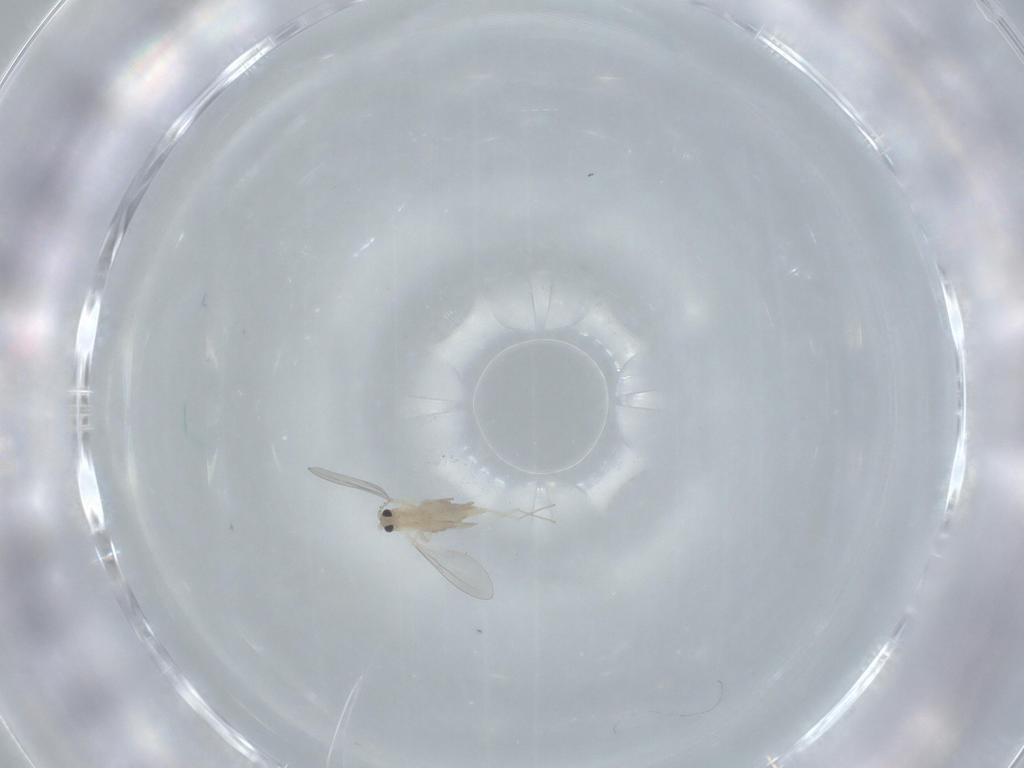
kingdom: Animalia
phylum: Arthropoda
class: Insecta
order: Diptera
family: Cecidomyiidae
